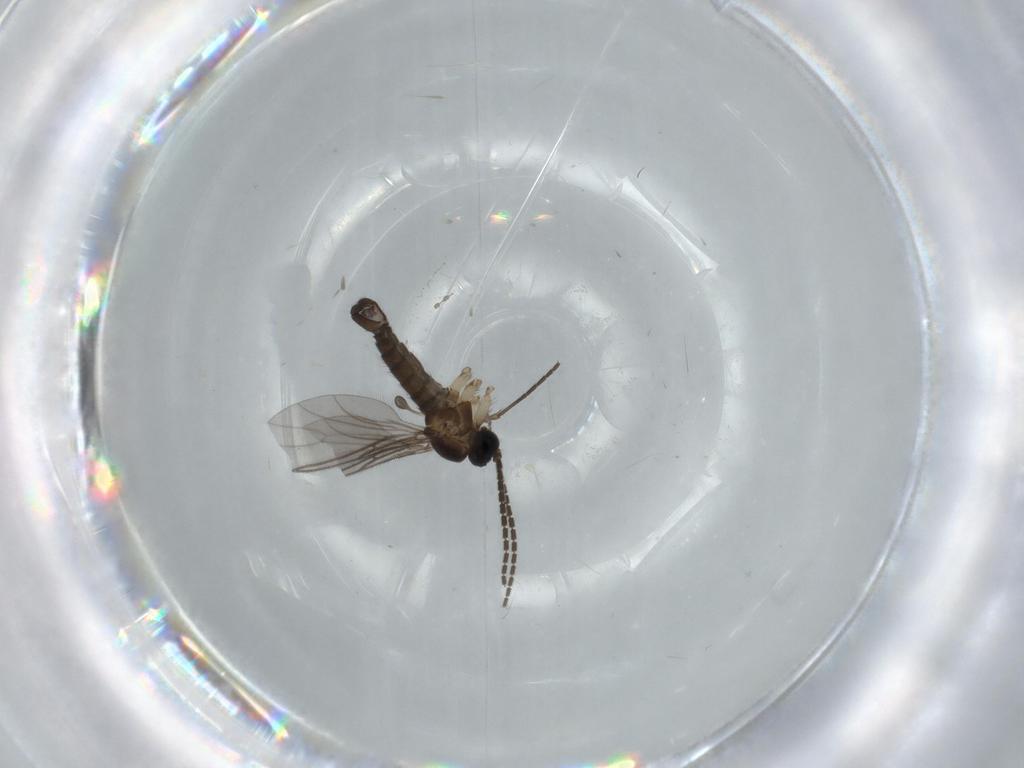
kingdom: Animalia
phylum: Arthropoda
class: Insecta
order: Diptera
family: Sciaridae
